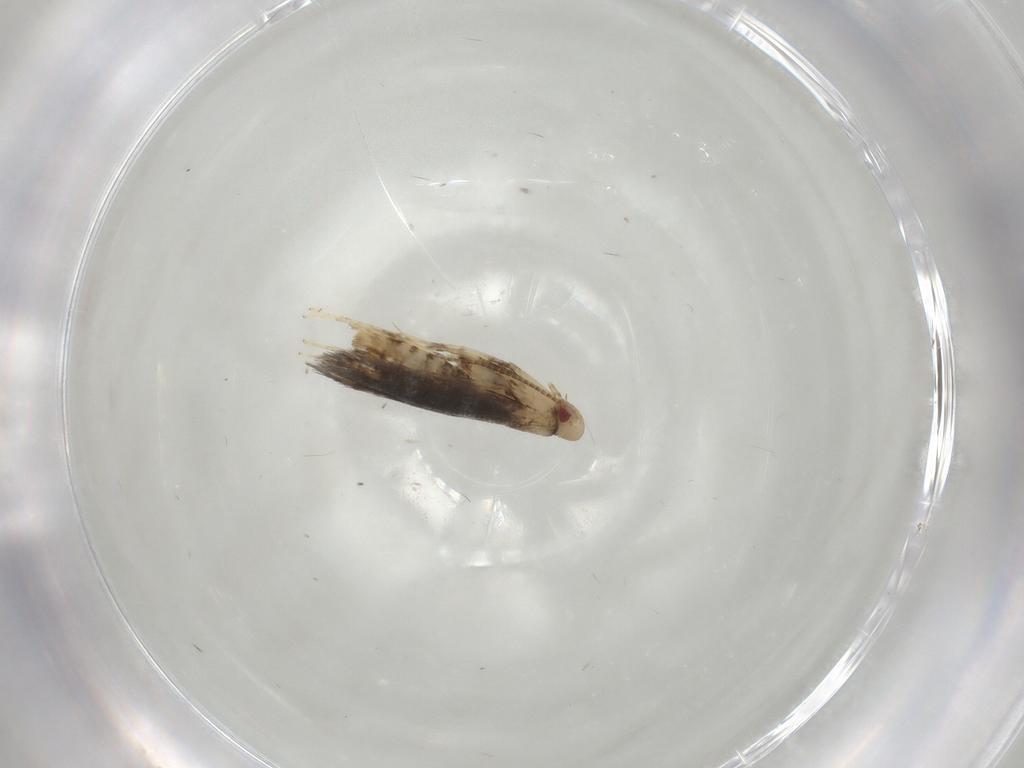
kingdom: Animalia
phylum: Arthropoda
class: Insecta
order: Lepidoptera
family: Gracillariidae
